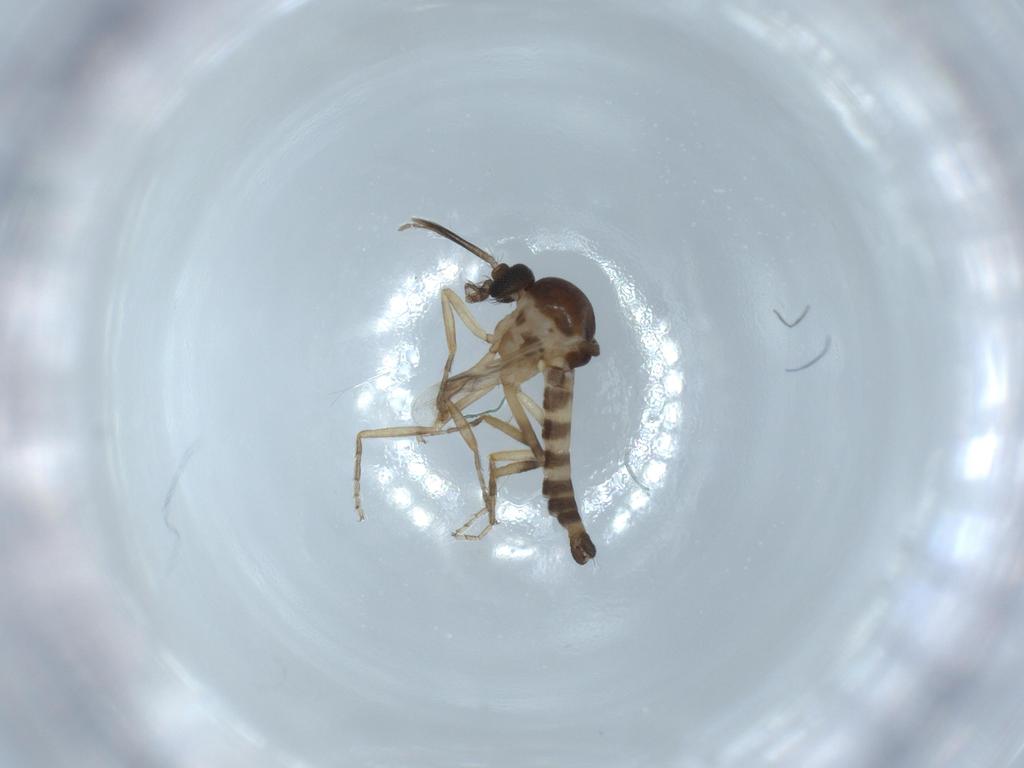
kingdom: Animalia
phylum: Arthropoda
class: Insecta
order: Diptera
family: Ceratopogonidae
